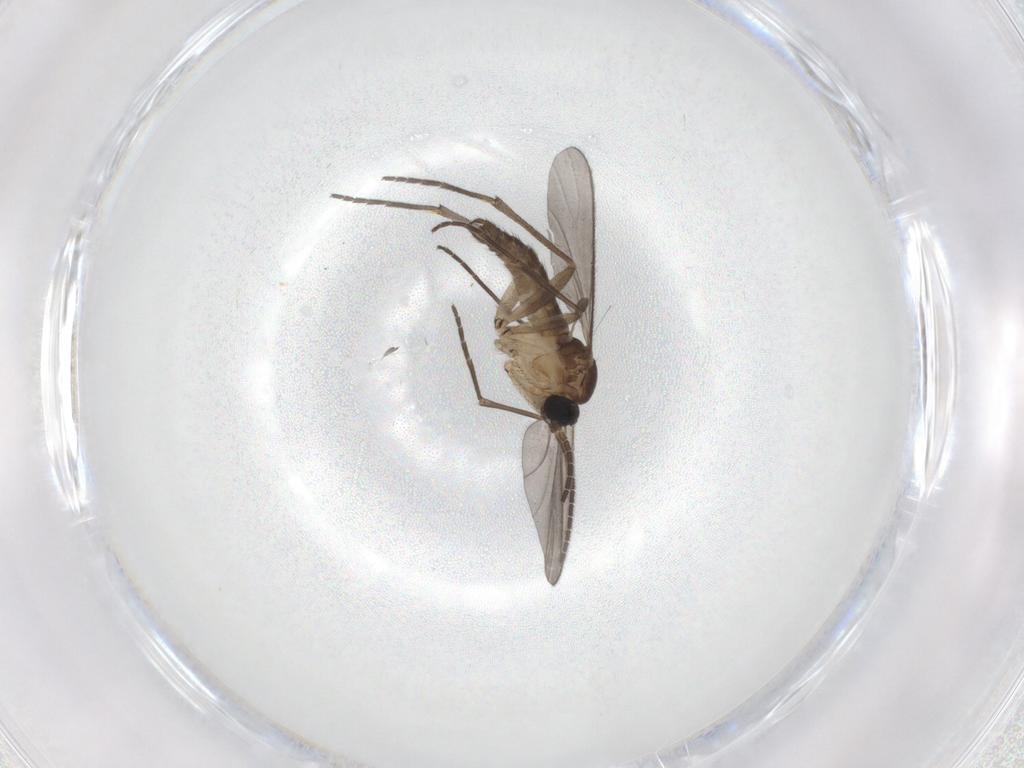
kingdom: Animalia
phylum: Arthropoda
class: Insecta
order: Diptera
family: Sciaridae
